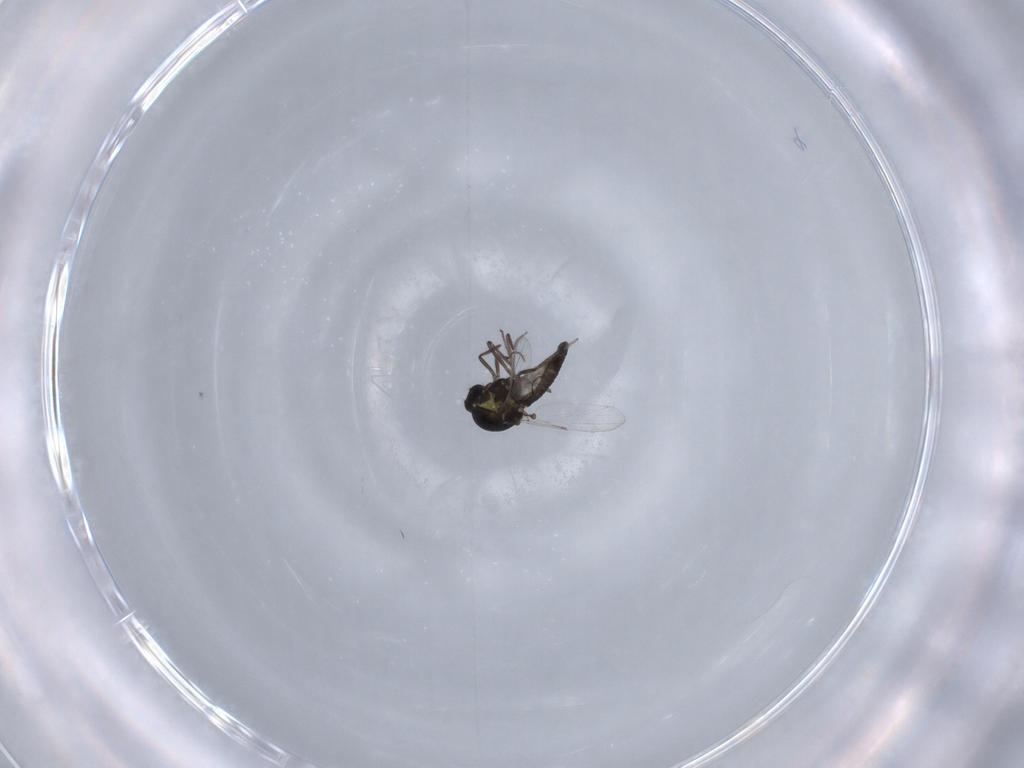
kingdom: Animalia
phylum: Arthropoda
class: Insecta
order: Diptera
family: Ceratopogonidae
